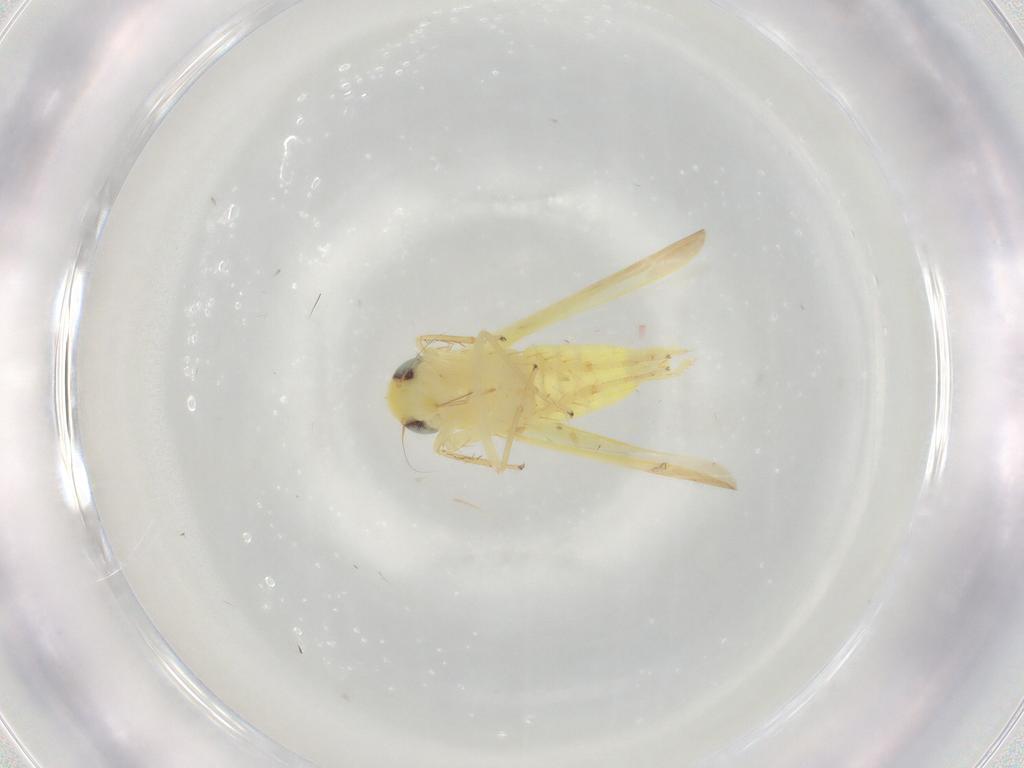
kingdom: Animalia
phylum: Arthropoda
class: Insecta
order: Hemiptera
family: Cicadellidae
